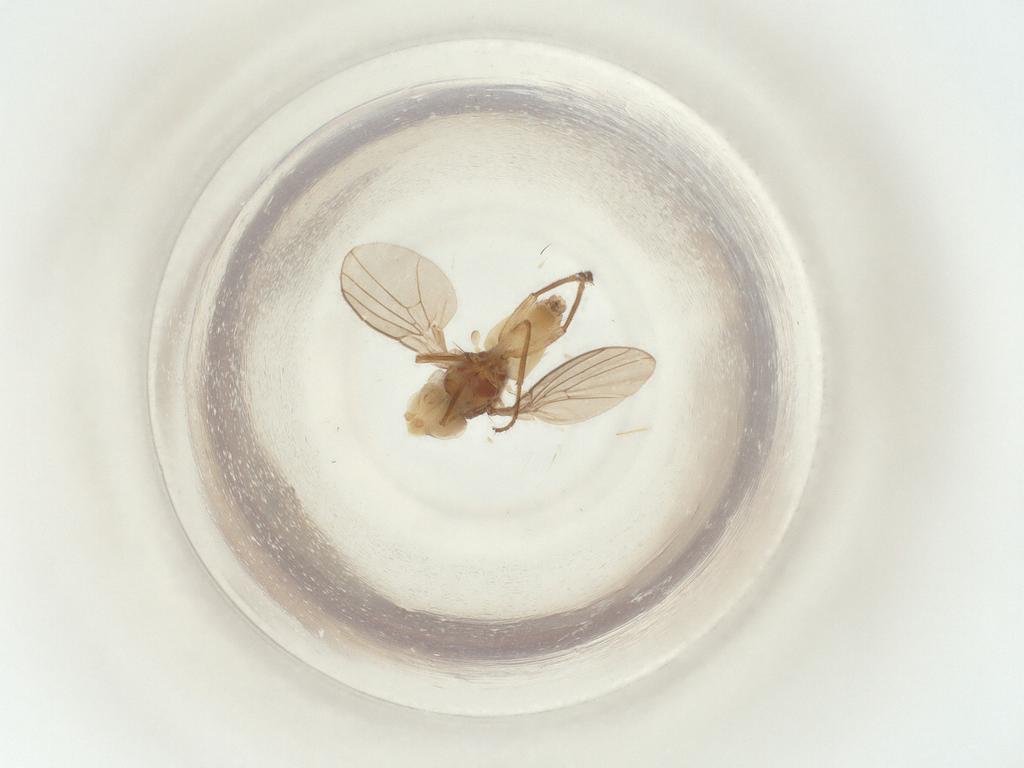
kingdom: Animalia
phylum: Arthropoda
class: Insecta
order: Diptera
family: Agromyzidae
